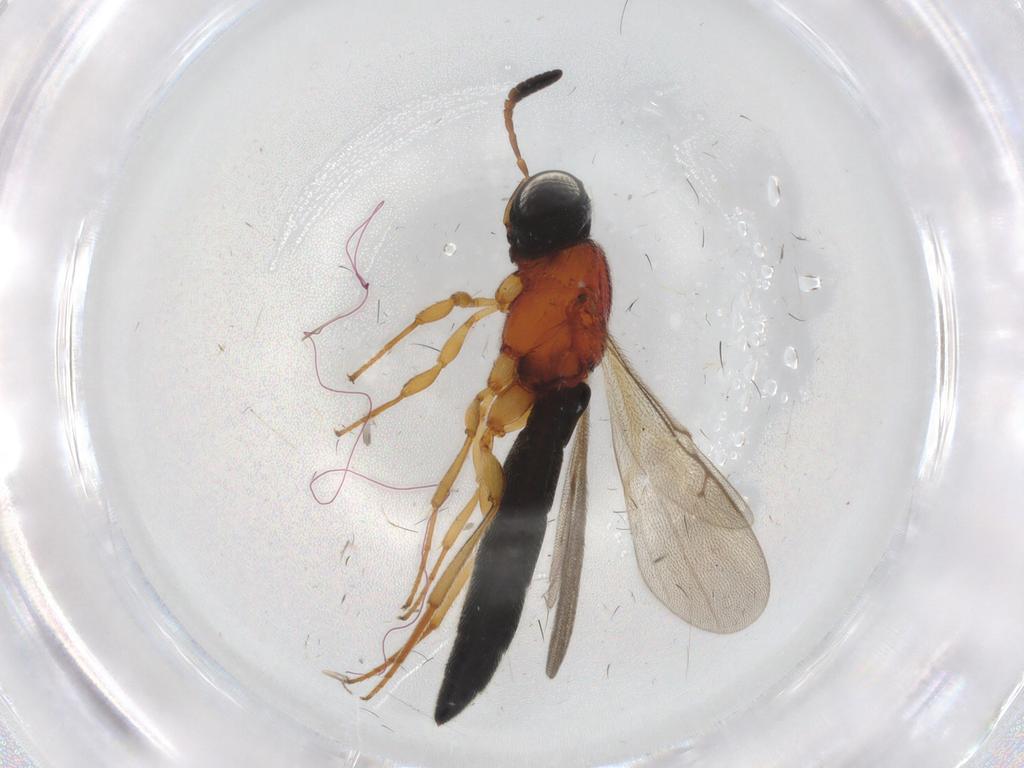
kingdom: Animalia
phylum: Arthropoda
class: Insecta
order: Hymenoptera
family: Scelionidae
